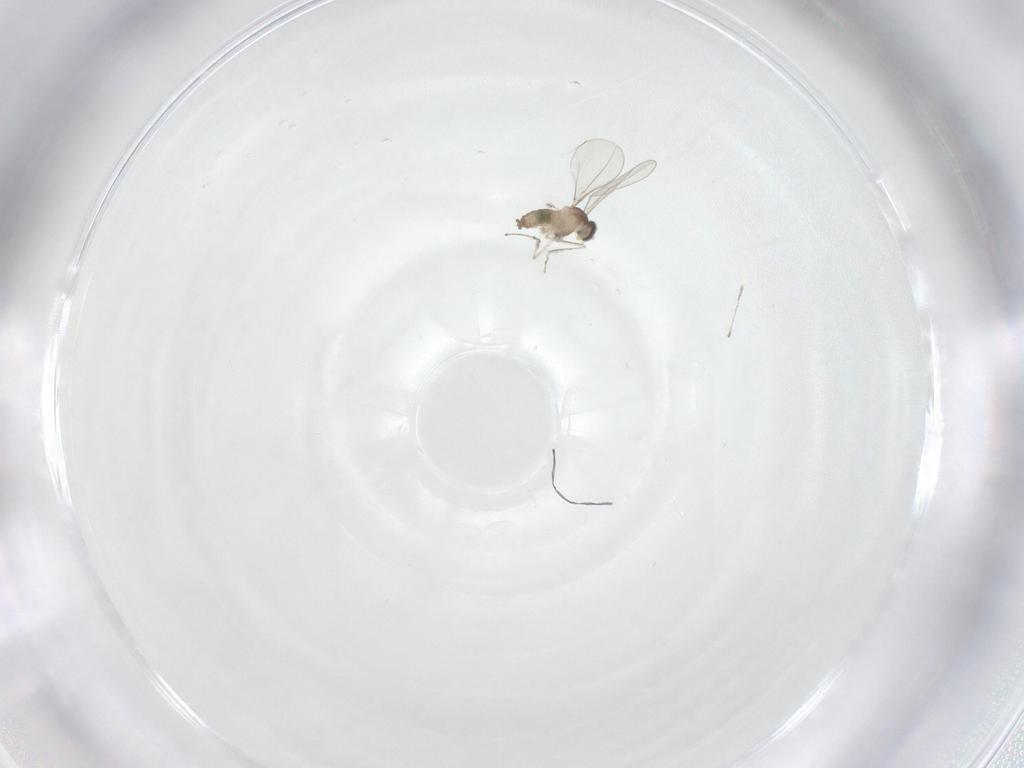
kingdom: Animalia
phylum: Arthropoda
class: Insecta
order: Diptera
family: Cecidomyiidae
